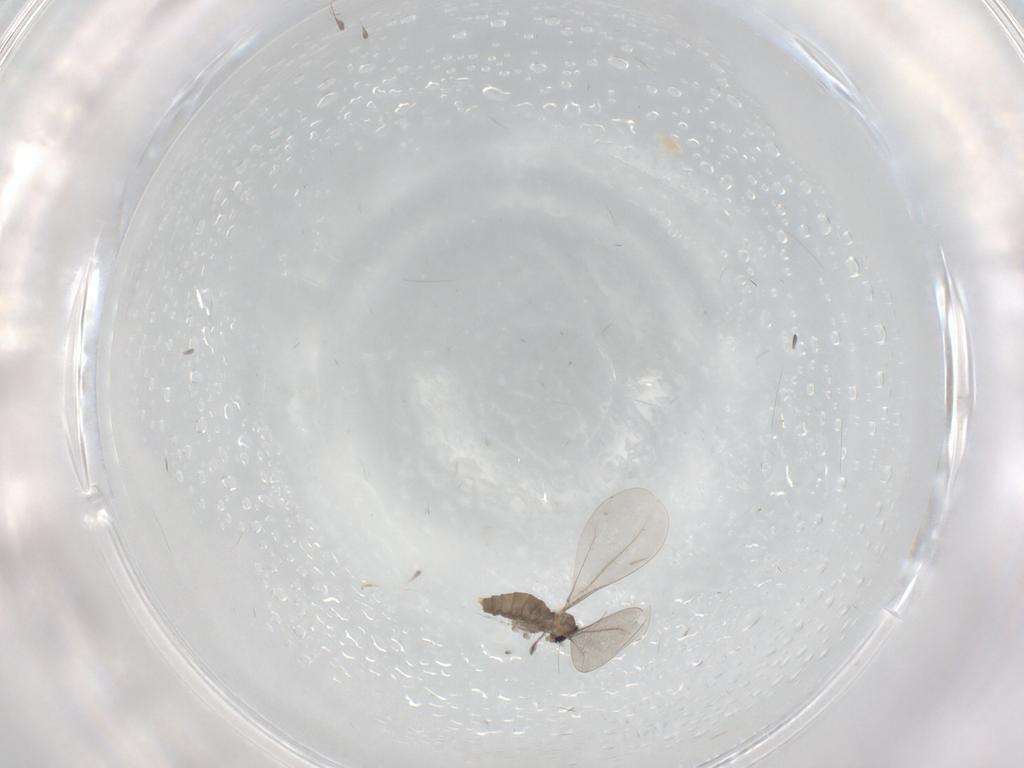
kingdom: Animalia
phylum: Arthropoda
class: Insecta
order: Diptera
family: Cecidomyiidae
